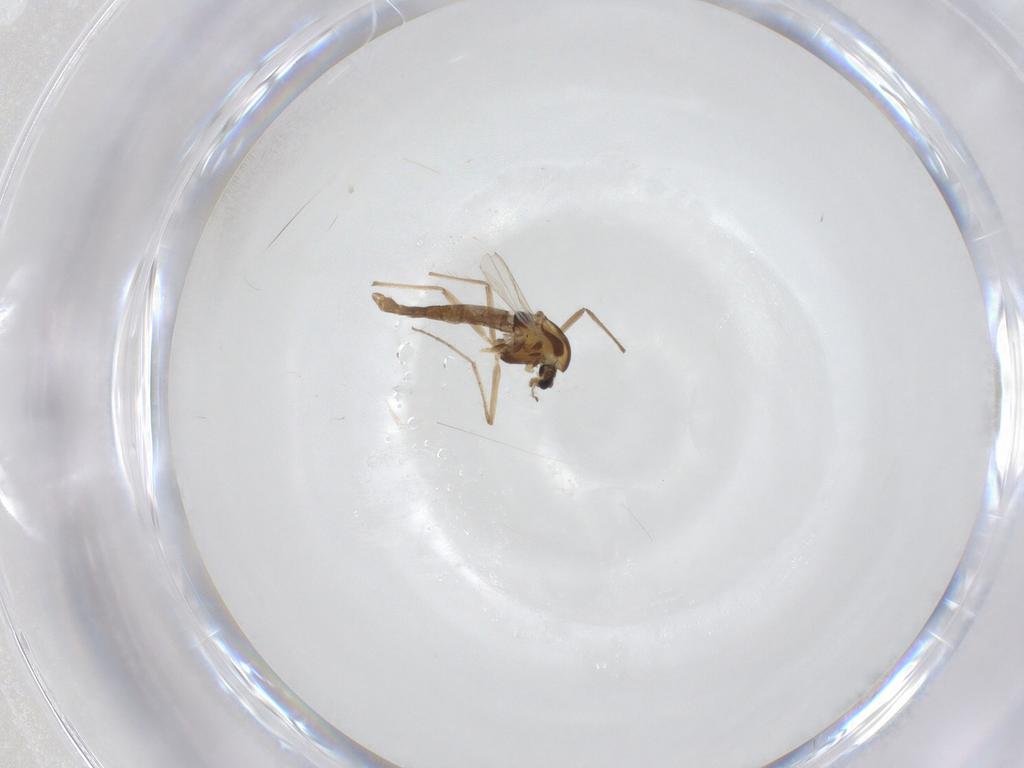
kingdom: Animalia
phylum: Arthropoda
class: Insecta
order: Diptera
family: Chironomidae
